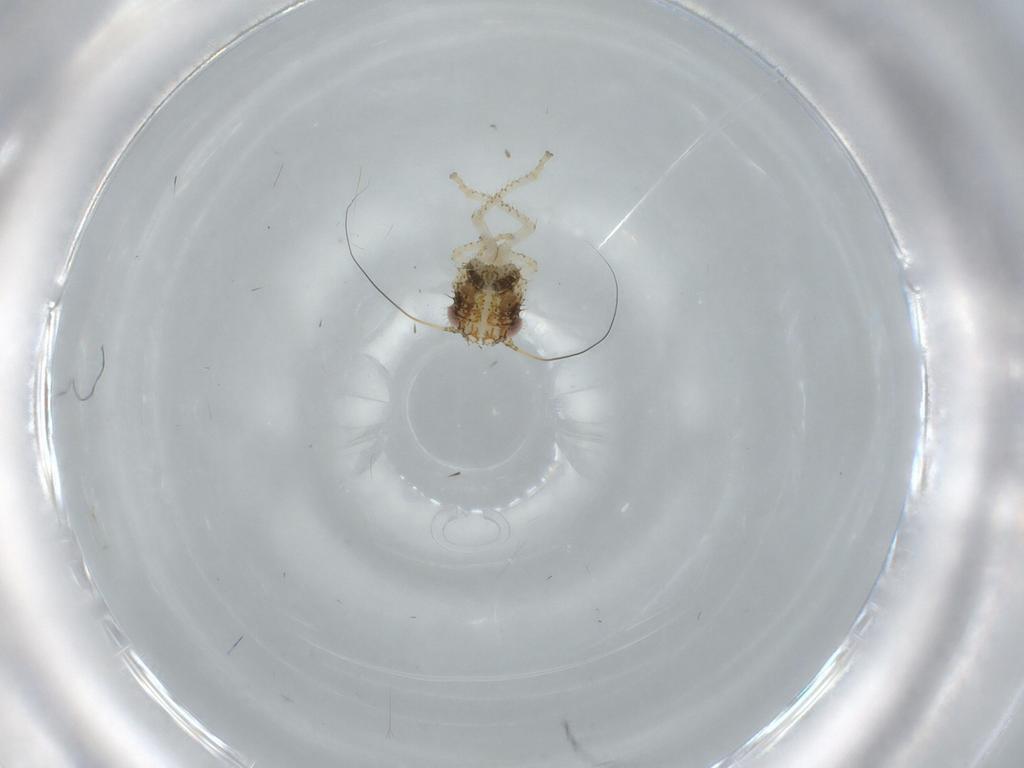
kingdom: Animalia
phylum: Arthropoda
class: Insecta
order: Hemiptera
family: Cicadellidae
